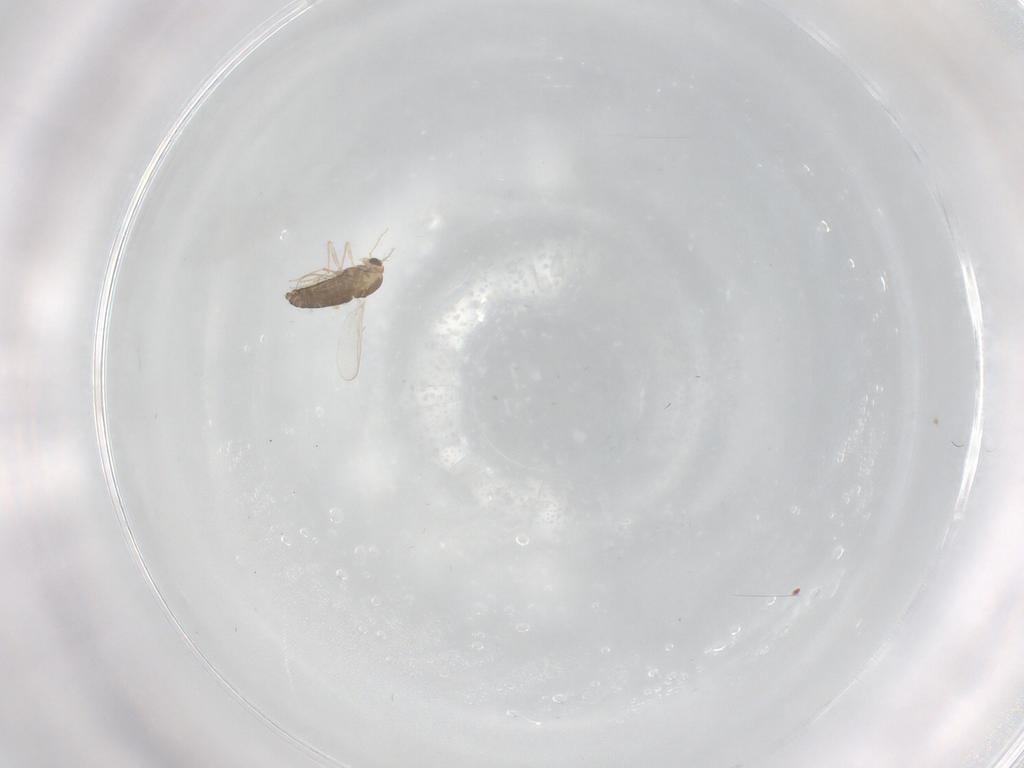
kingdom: Animalia
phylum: Arthropoda
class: Insecta
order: Diptera
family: Chironomidae
